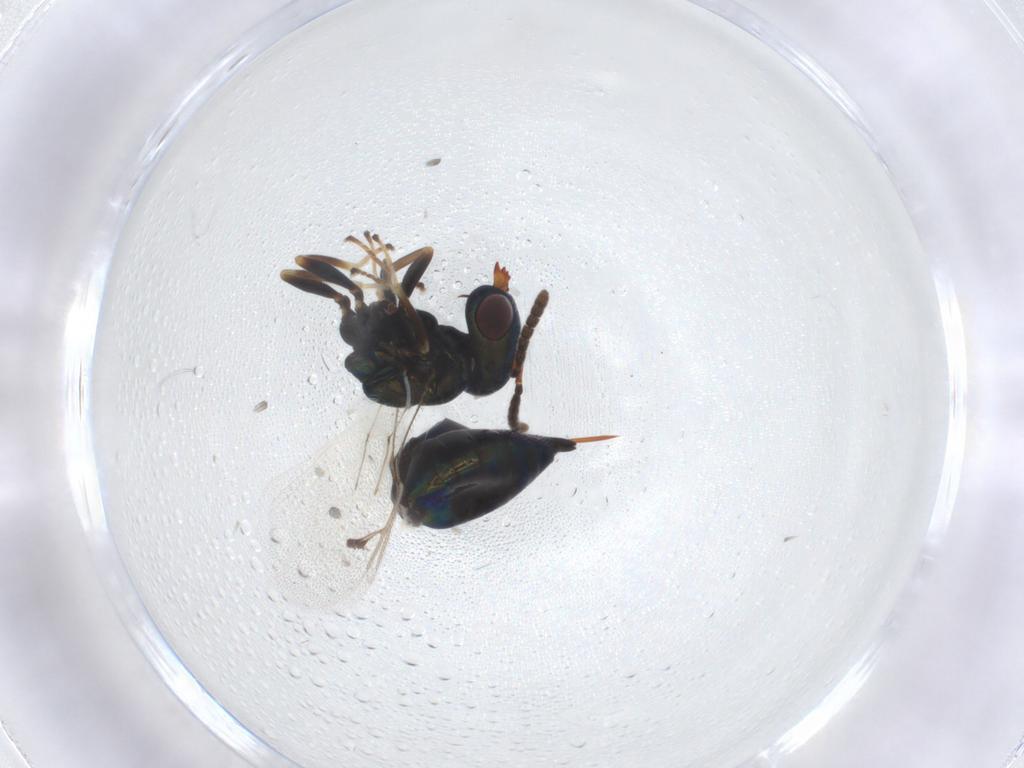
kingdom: Animalia
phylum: Arthropoda
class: Insecta
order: Hymenoptera
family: Pteromalidae
